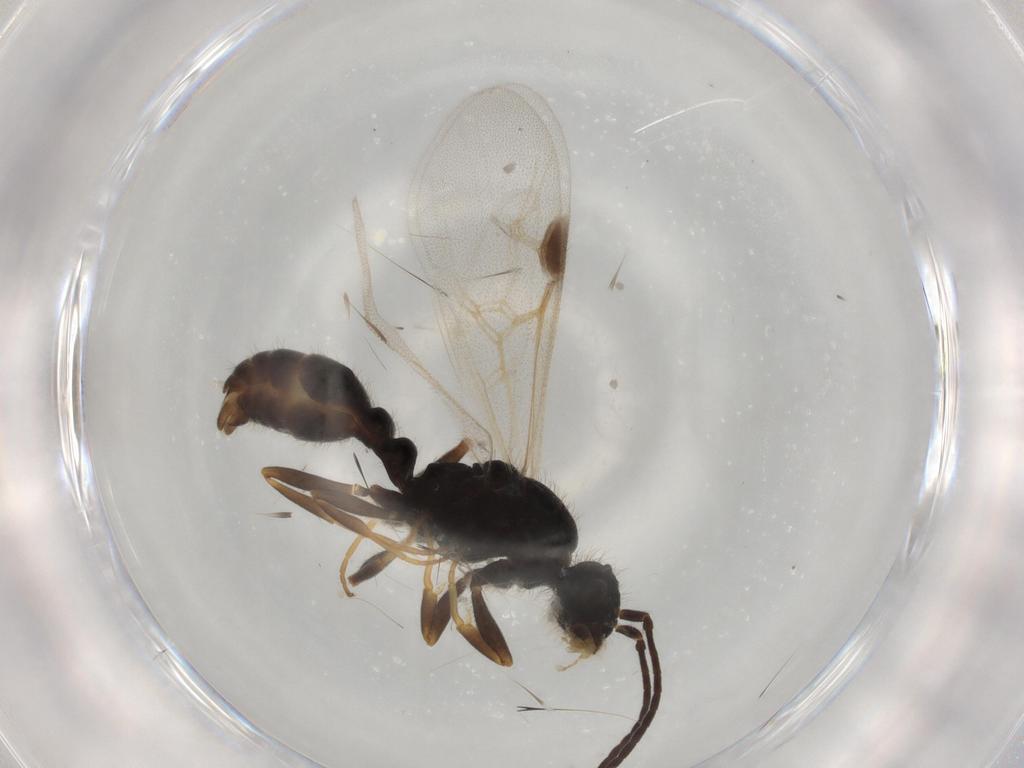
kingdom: Animalia
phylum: Arthropoda
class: Insecta
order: Hymenoptera
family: Formicidae
